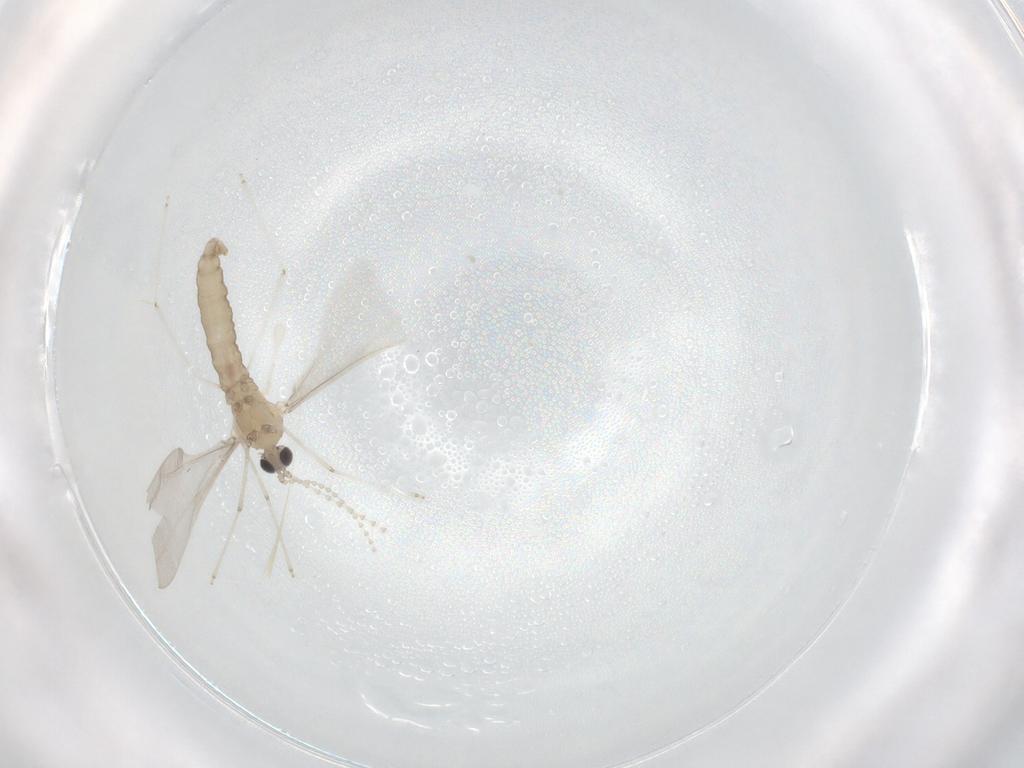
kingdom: Animalia
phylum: Arthropoda
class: Insecta
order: Diptera
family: Cecidomyiidae
